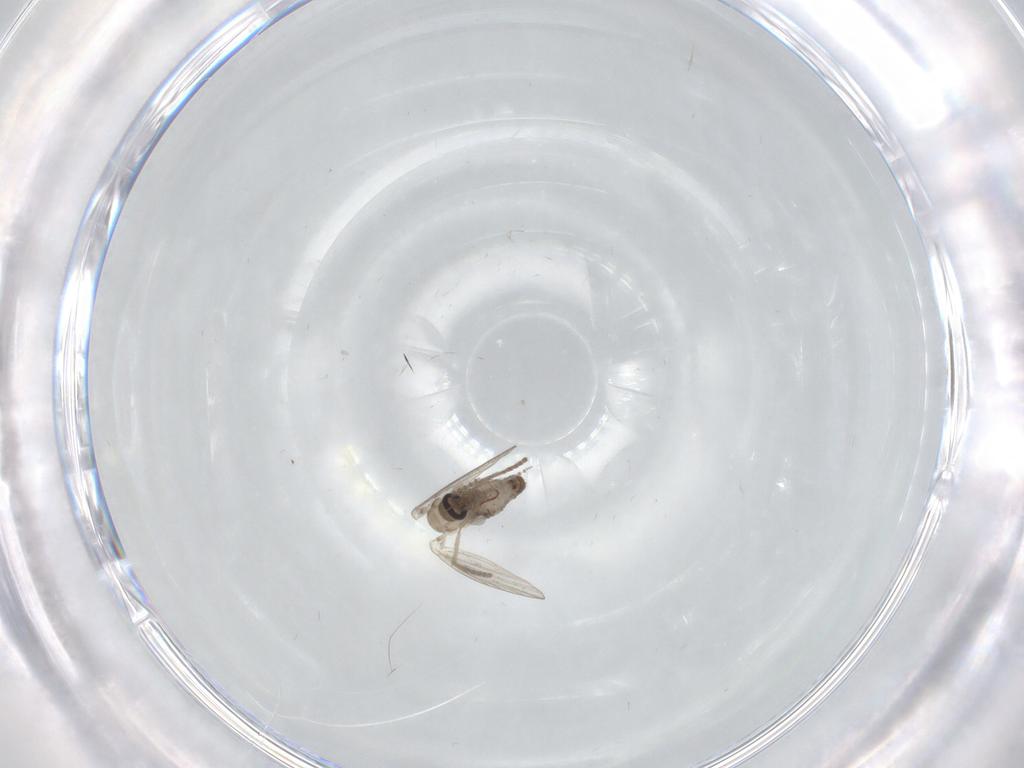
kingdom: Animalia
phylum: Arthropoda
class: Insecta
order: Diptera
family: Psychodidae
